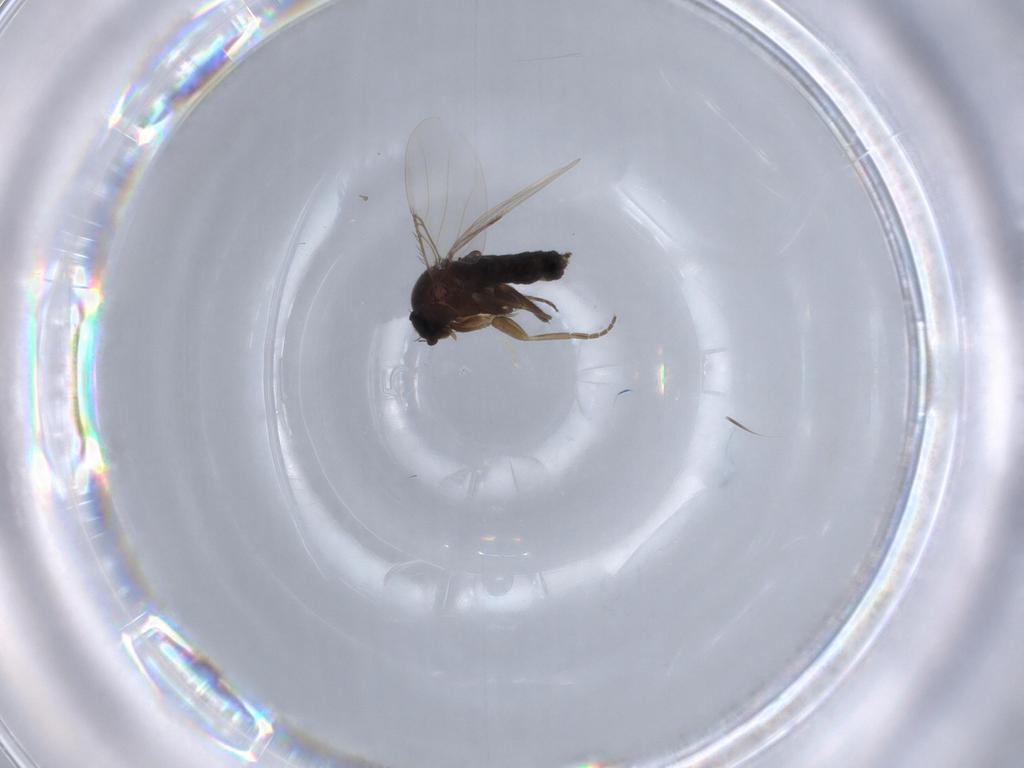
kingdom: Animalia
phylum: Arthropoda
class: Insecta
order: Diptera
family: Phoridae
